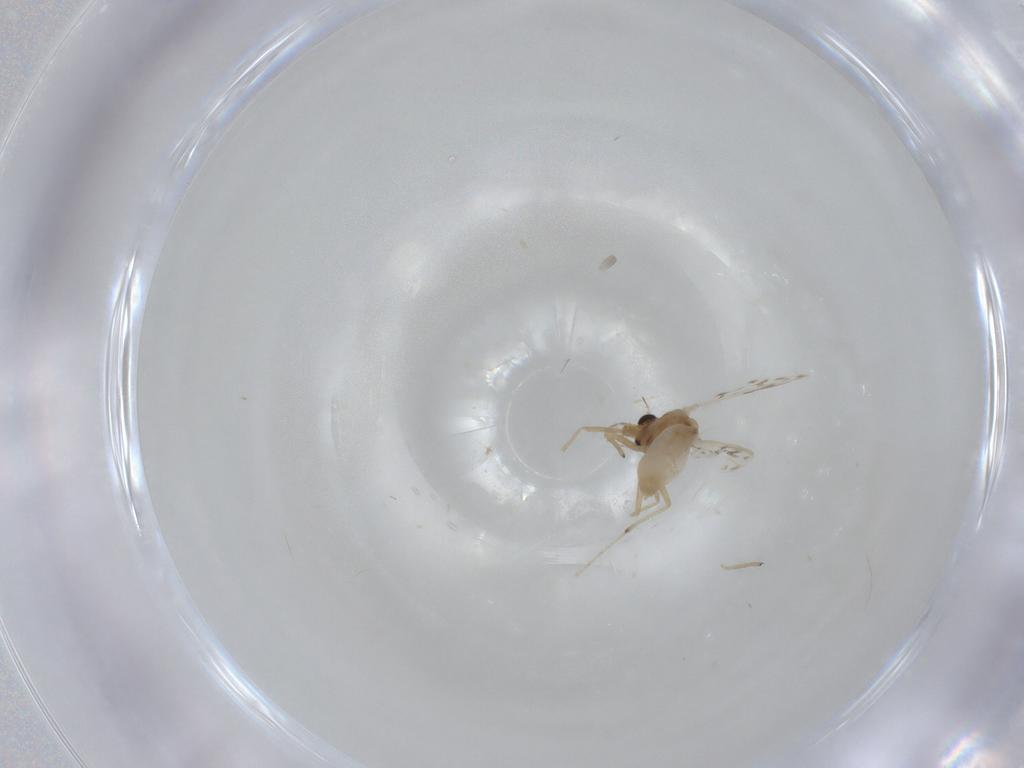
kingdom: Animalia
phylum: Arthropoda
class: Insecta
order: Diptera
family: Chironomidae
